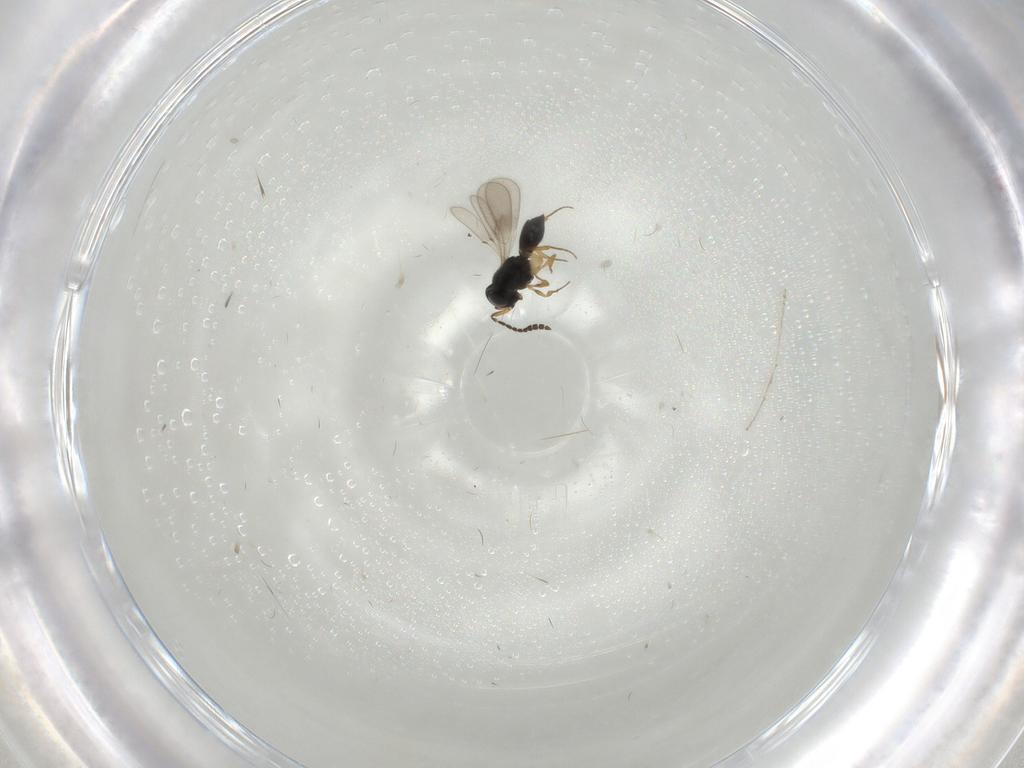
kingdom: Animalia
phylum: Arthropoda
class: Insecta
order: Hymenoptera
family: Scelionidae
